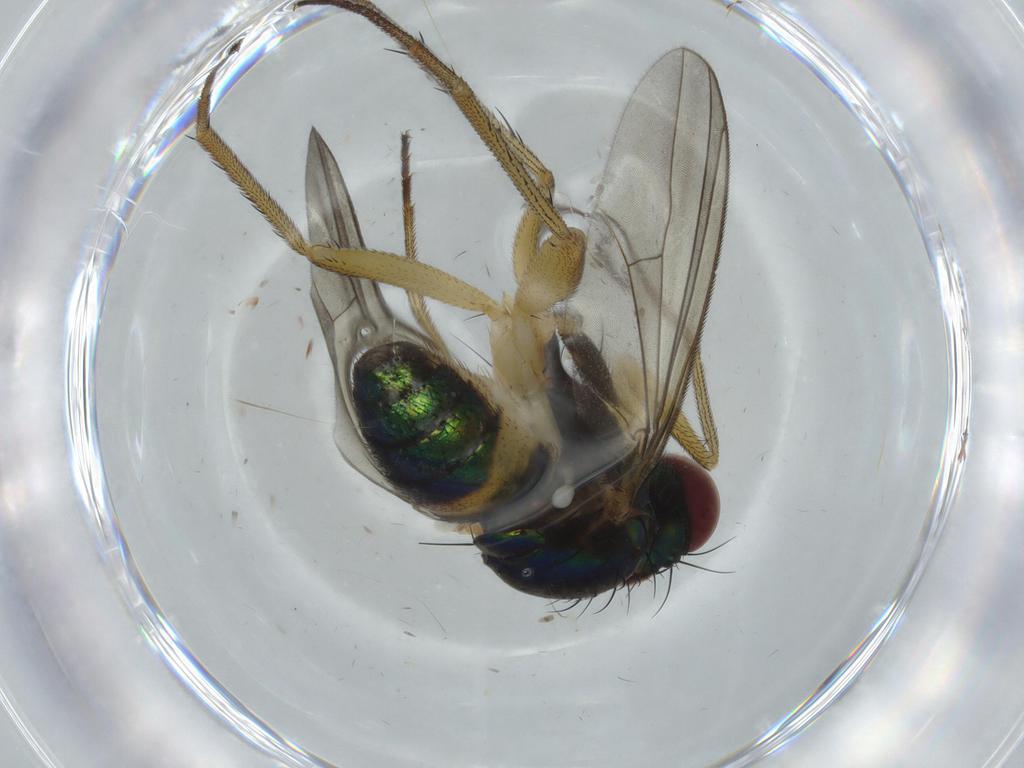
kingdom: Animalia
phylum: Arthropoda
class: Insecta
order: Diptera
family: Dolichopodidae
